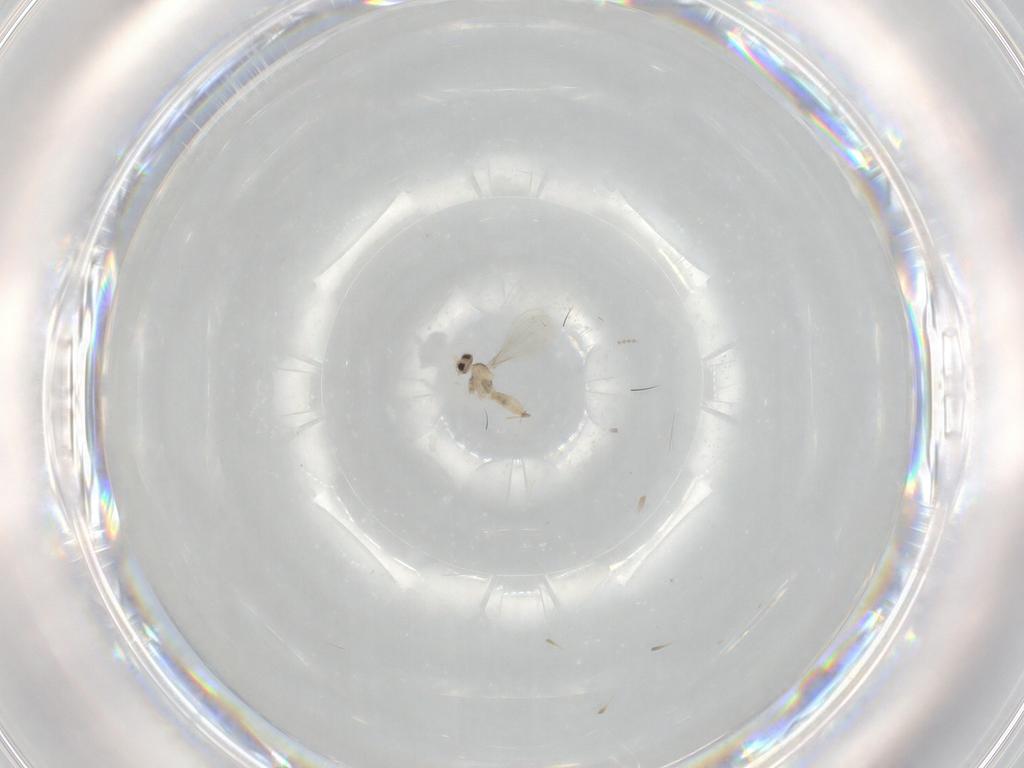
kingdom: Animalia
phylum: Arthropoda
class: Insecta
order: Diptera
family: Cecidomyiidae
